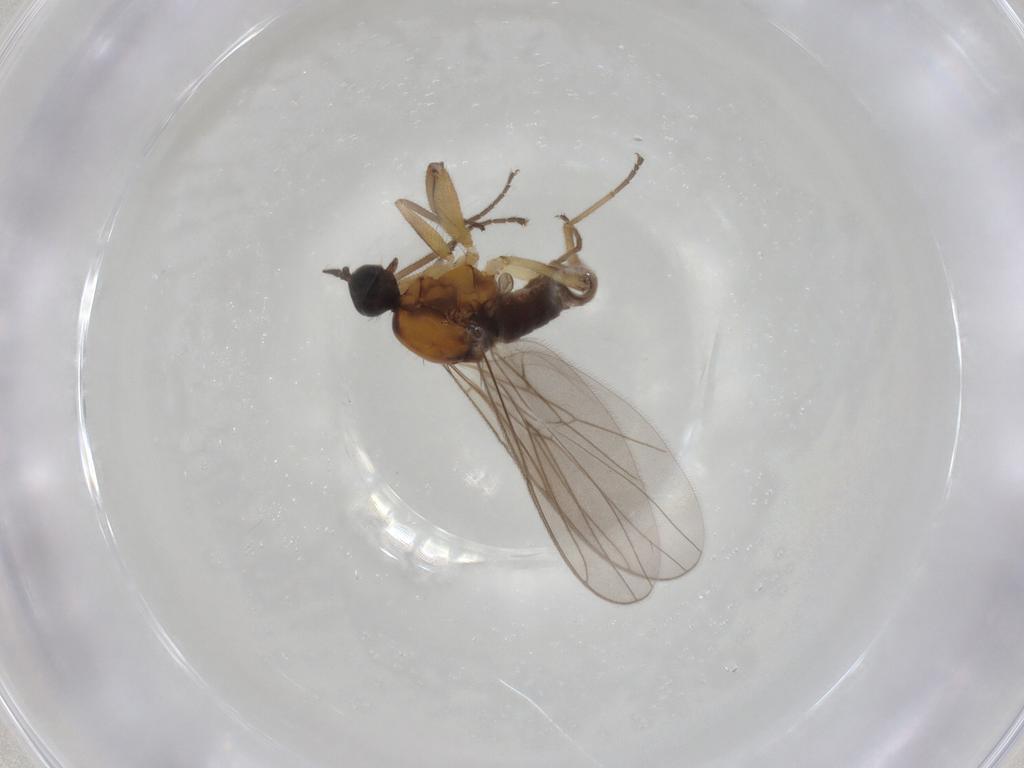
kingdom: Animalia
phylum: Arthropoda
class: Insecta
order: Diptera
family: Hybotidae
